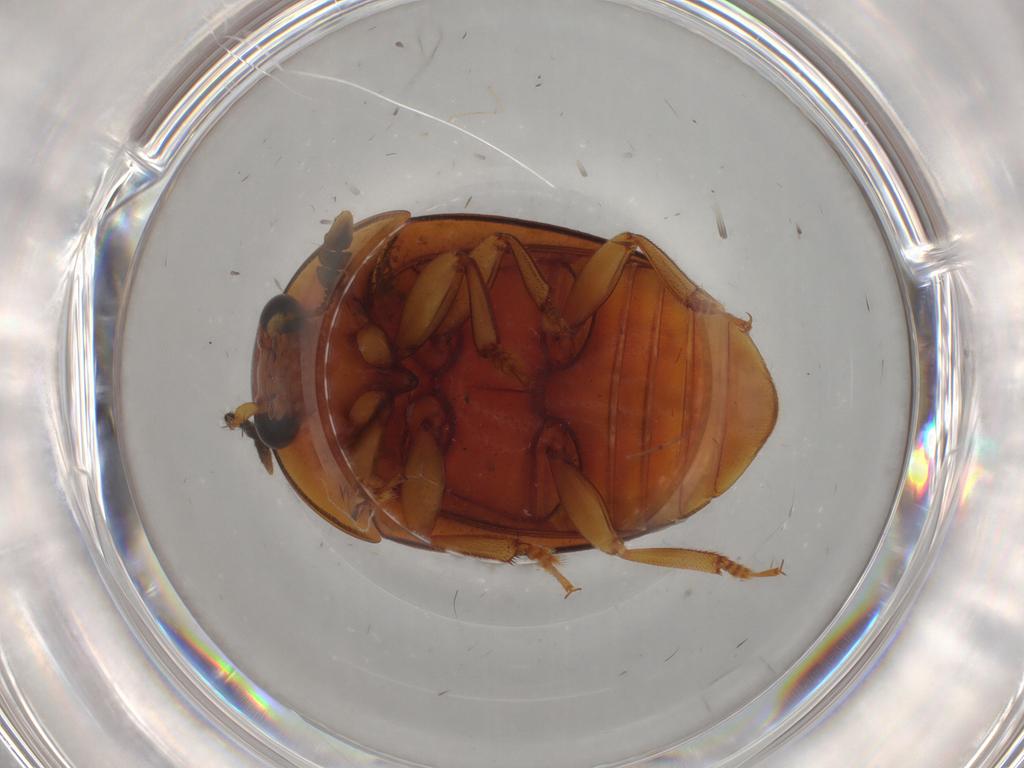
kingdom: Animalia
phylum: Arthropoda
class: Insecta
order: Coleoptera
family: Nitidulidae
